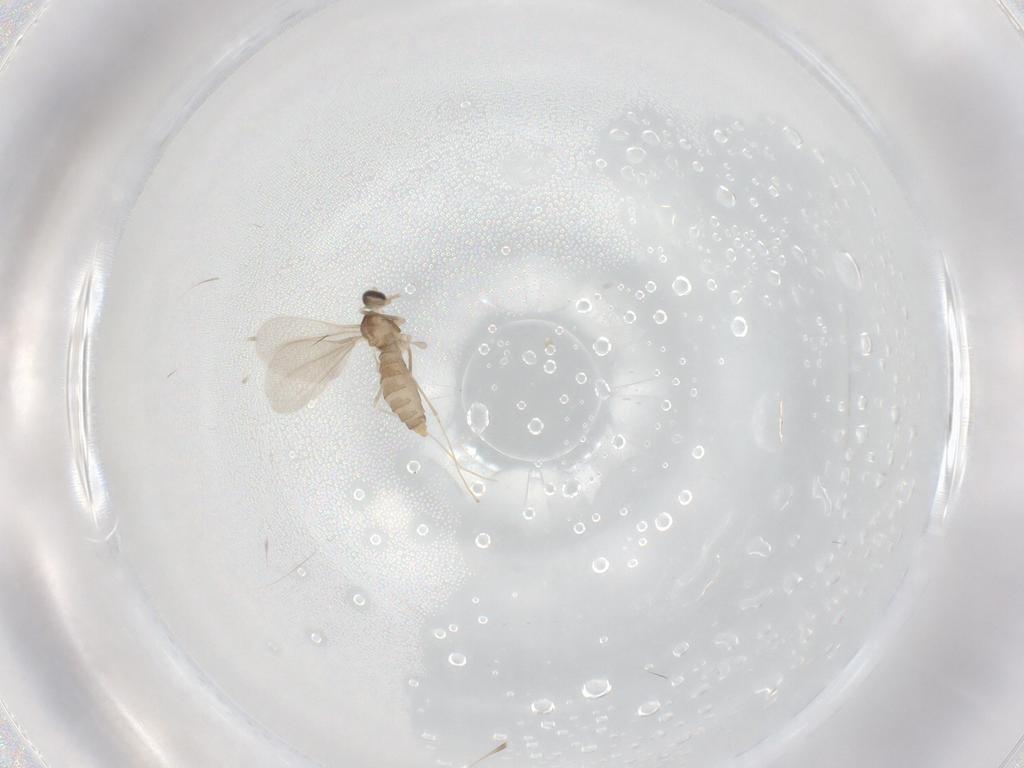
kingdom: Animalia
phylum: Arthropoda
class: Insecta
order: Diptera
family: Cecidomyiidae
